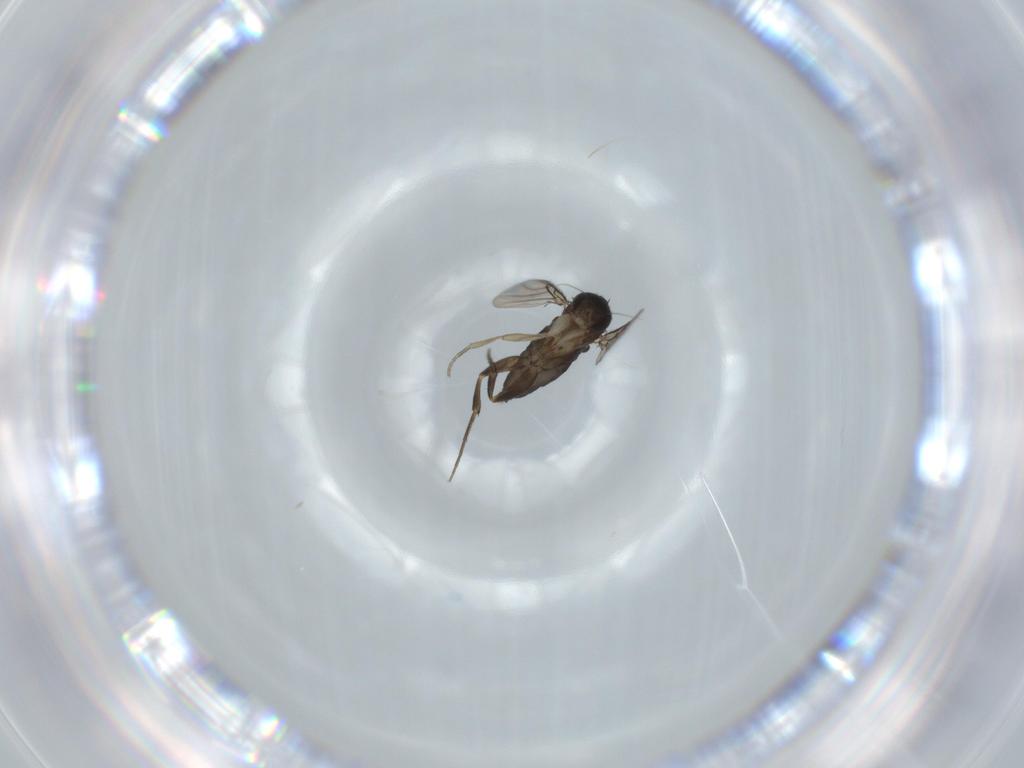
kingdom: Animalia
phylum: Arthropoda
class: Insecta
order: Diptera
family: Phoridae
